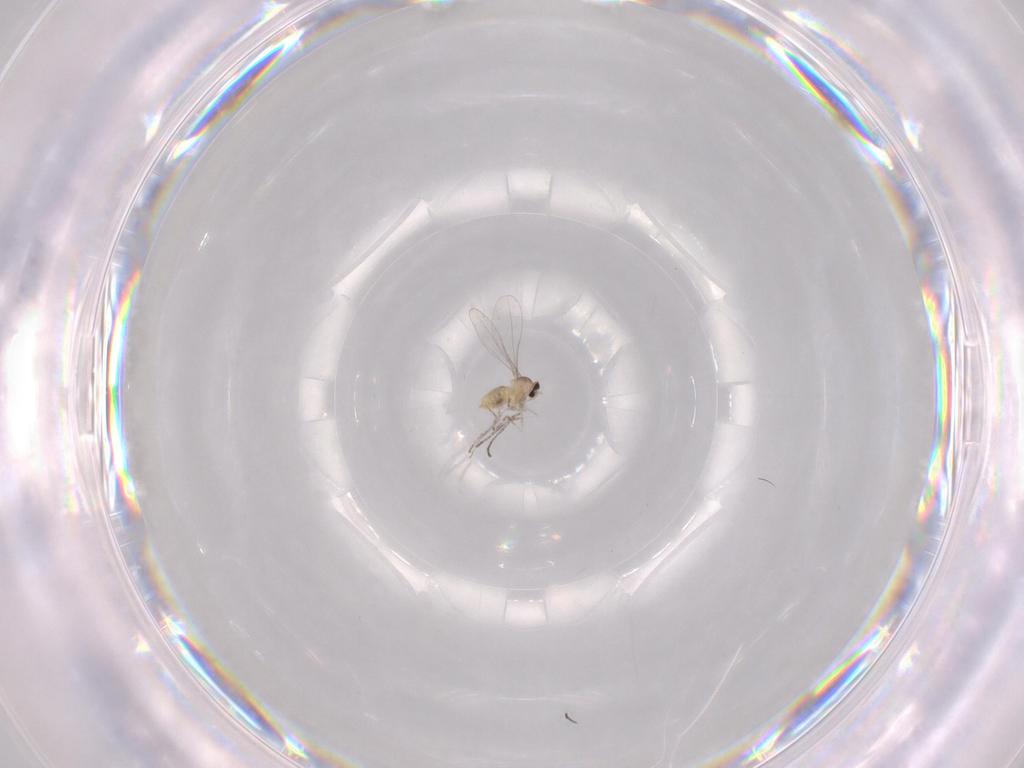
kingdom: Animalia
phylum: Arthropoda
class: Insecta
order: Diptera
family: Cecidomyiidae
